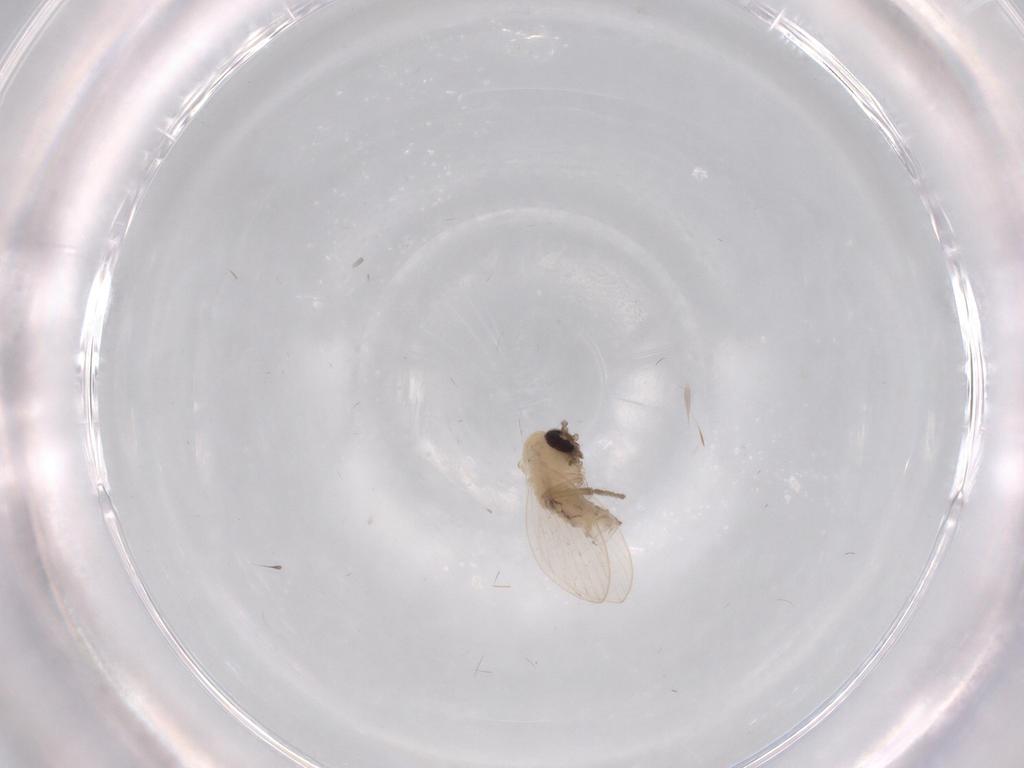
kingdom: Animalia
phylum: Arthropoda
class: Insecta
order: Diptera
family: Psychodidae
